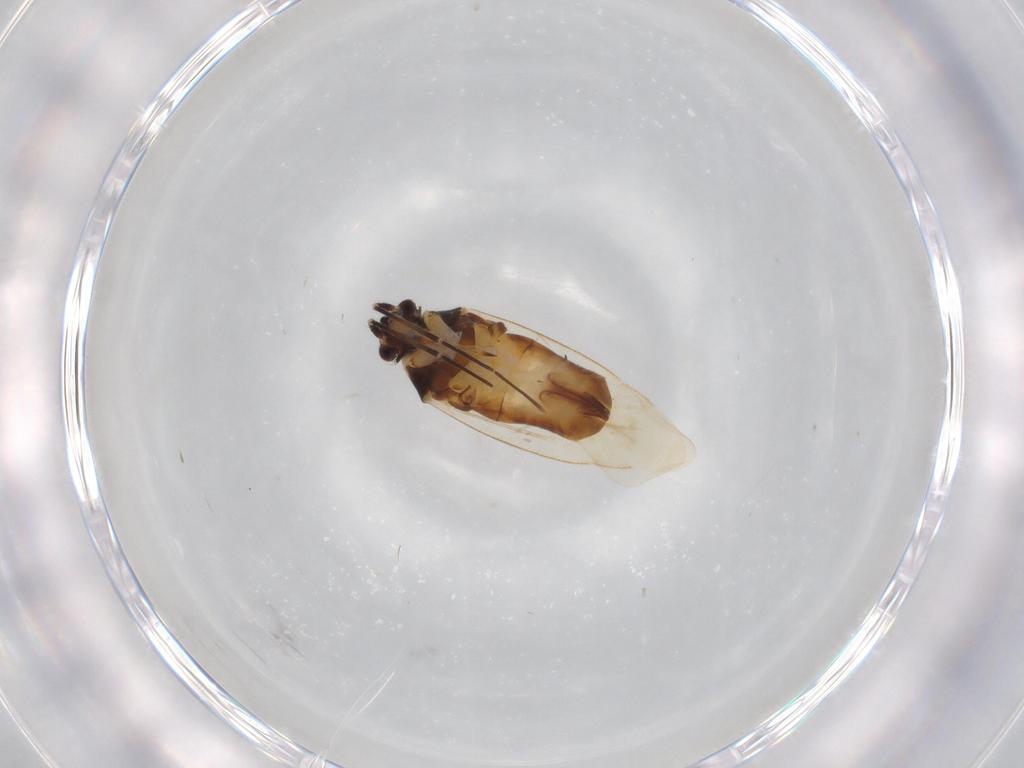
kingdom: Animalia
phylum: Arthropoda
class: Insecta
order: Hemiptera
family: Miridae
